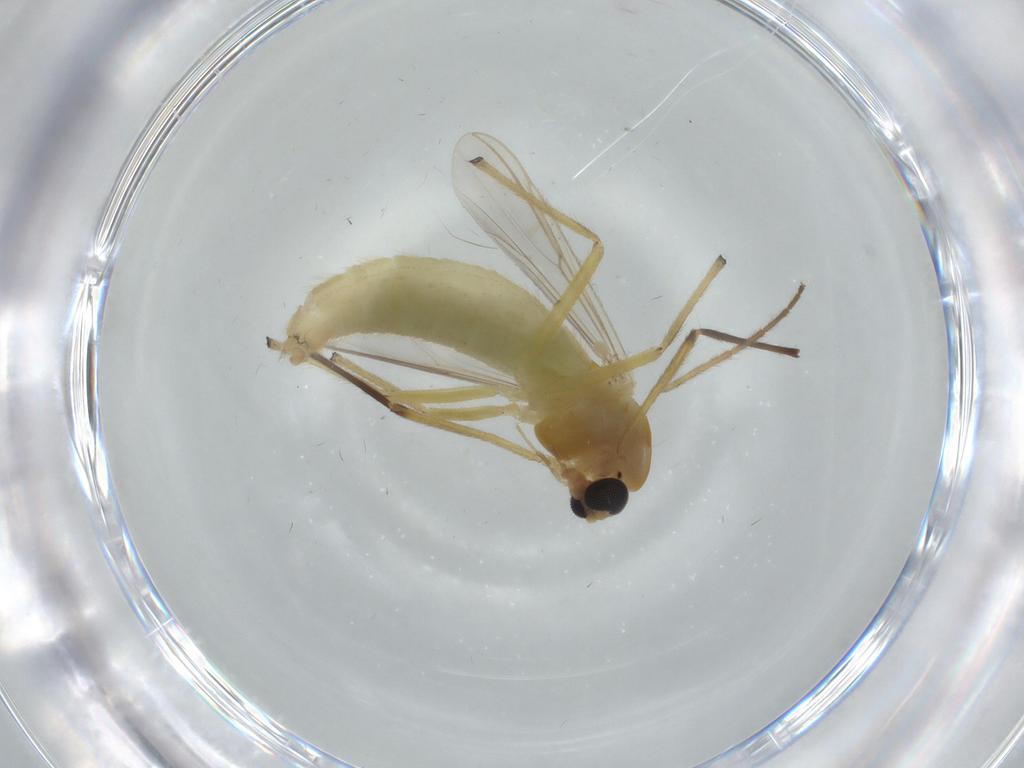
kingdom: Animalia
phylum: Arthropoda
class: Insecta
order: Diptera
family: Chironomidae
